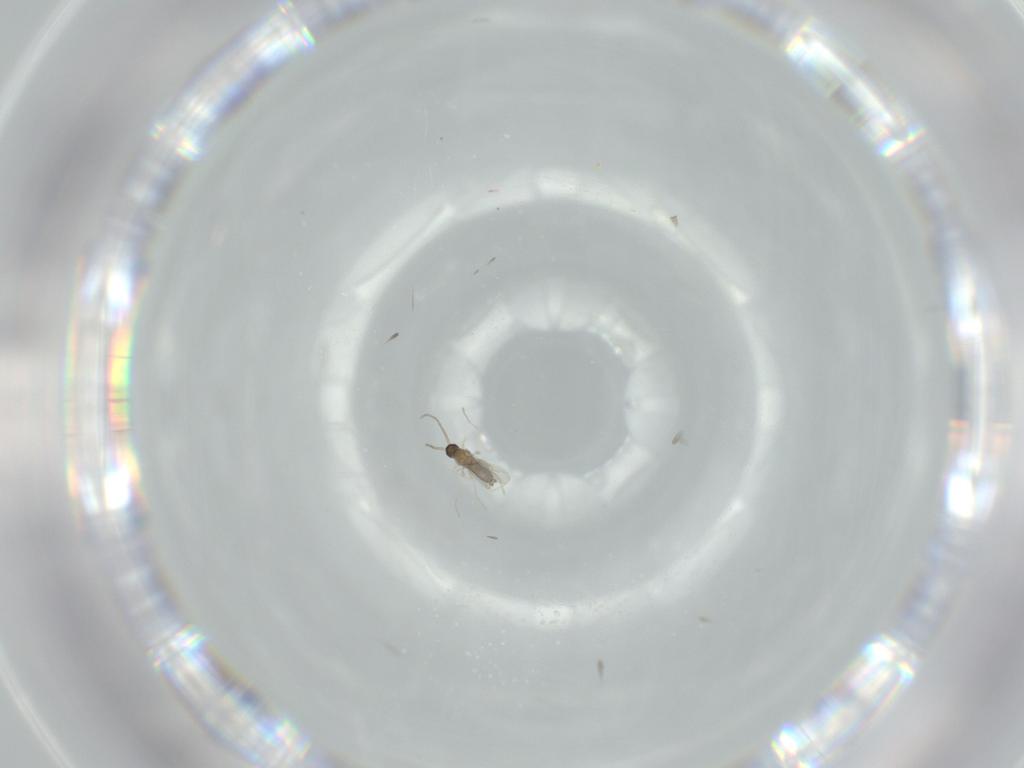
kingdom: Animalia
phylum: Arthropoda
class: Insecta
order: Diptera
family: Cecidomyiidae
